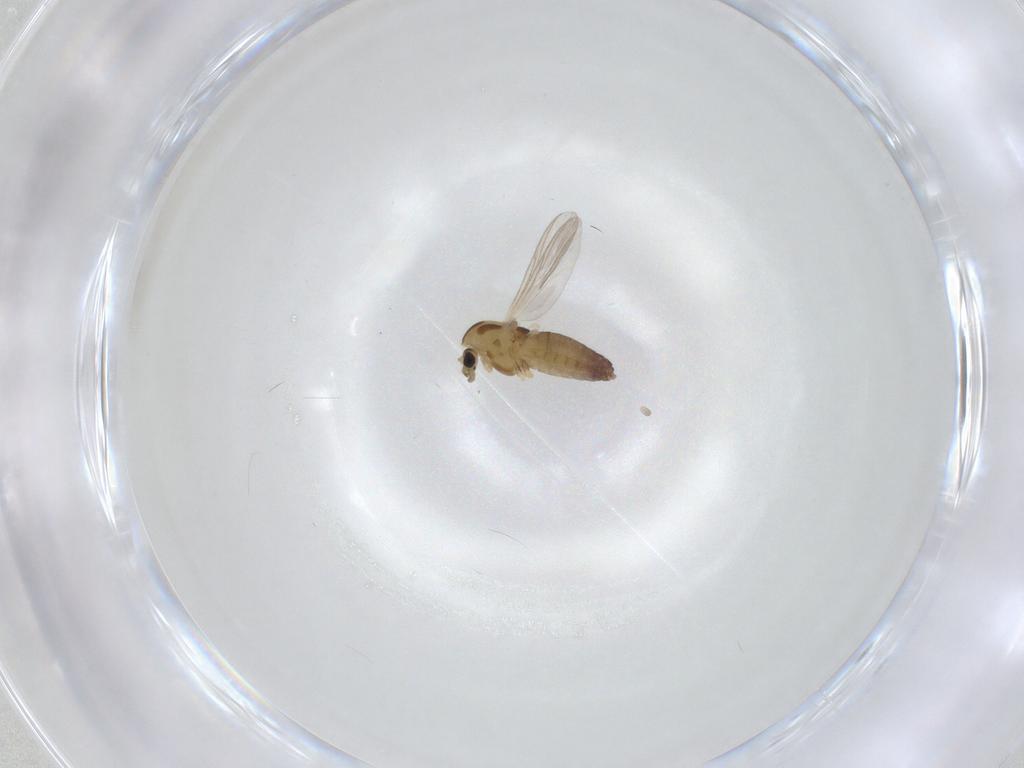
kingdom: Animalia
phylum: Arthropoda
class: Insecta
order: Diptera
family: Chironomidae
